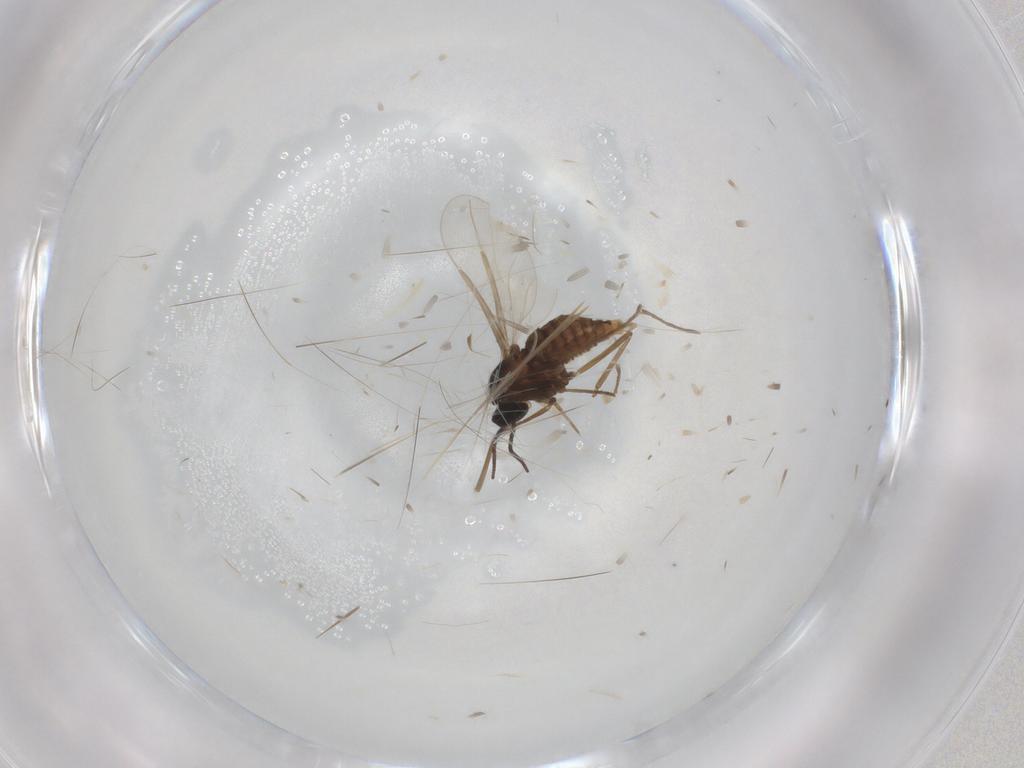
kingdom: Animalia
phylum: Arthropoda
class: Insecta
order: Diptera
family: Cecidomyiidae
